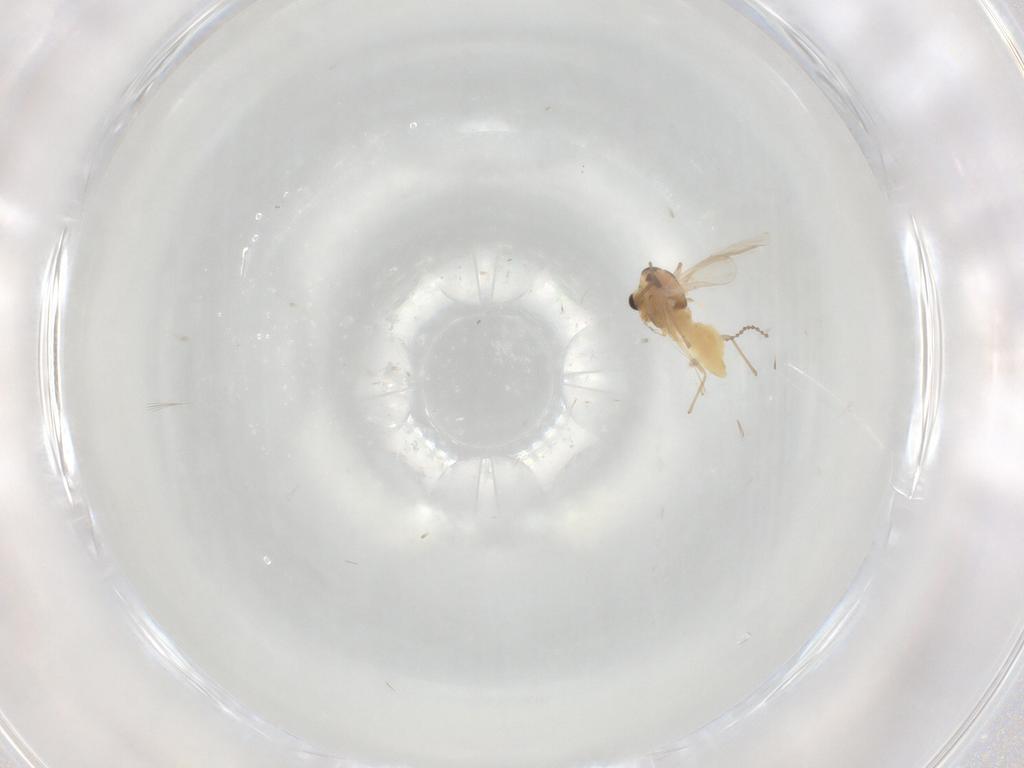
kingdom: Animalia
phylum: Arthropoda
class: Insecta
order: Diptera
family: Chironomidae
